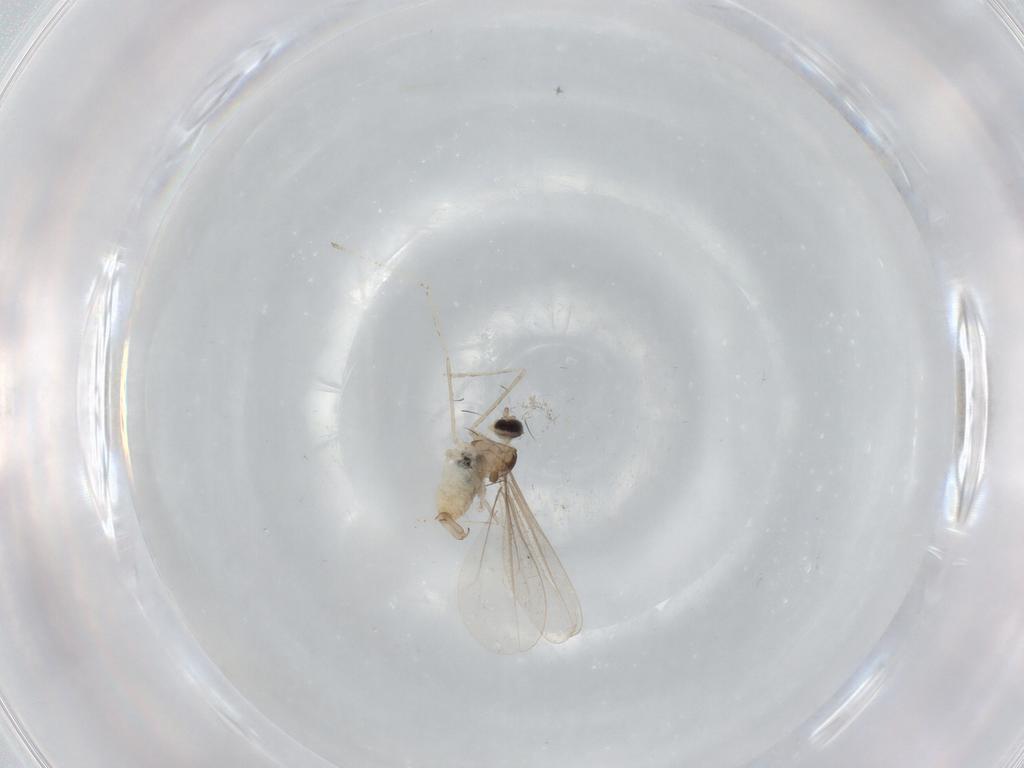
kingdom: Animalia
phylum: Arthropoda
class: Insecta
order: Diptera
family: Cecidomyiidae
